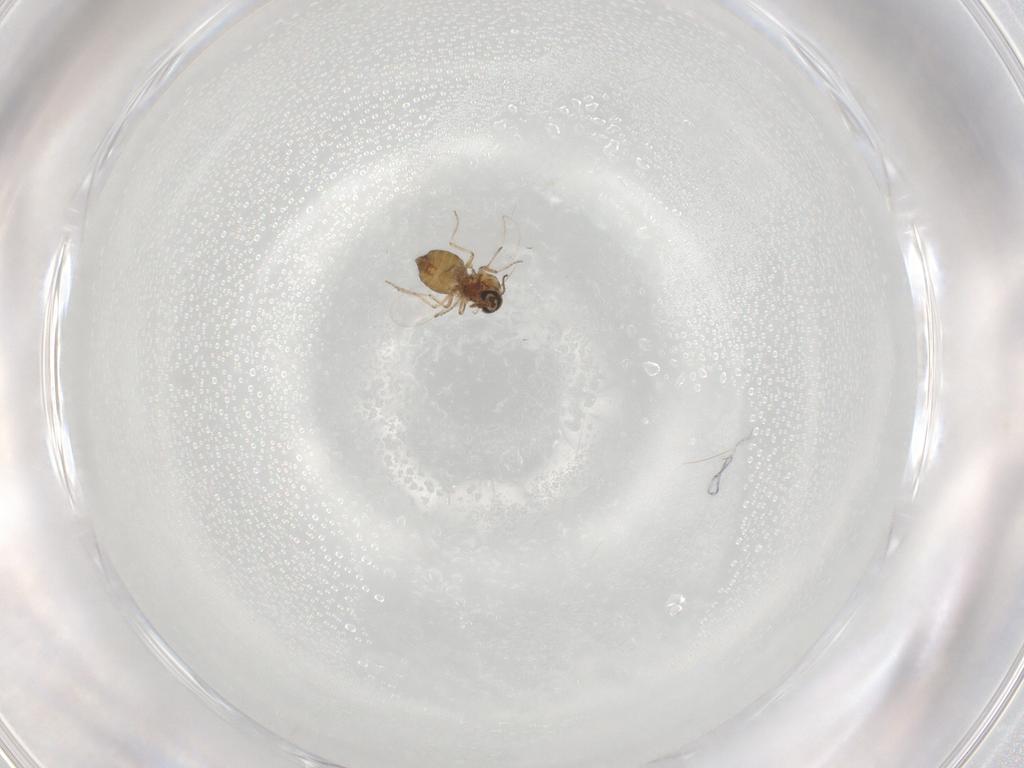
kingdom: Animalia
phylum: Arthropoda
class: Insecta
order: Diptera
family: Ceratopogonidae
